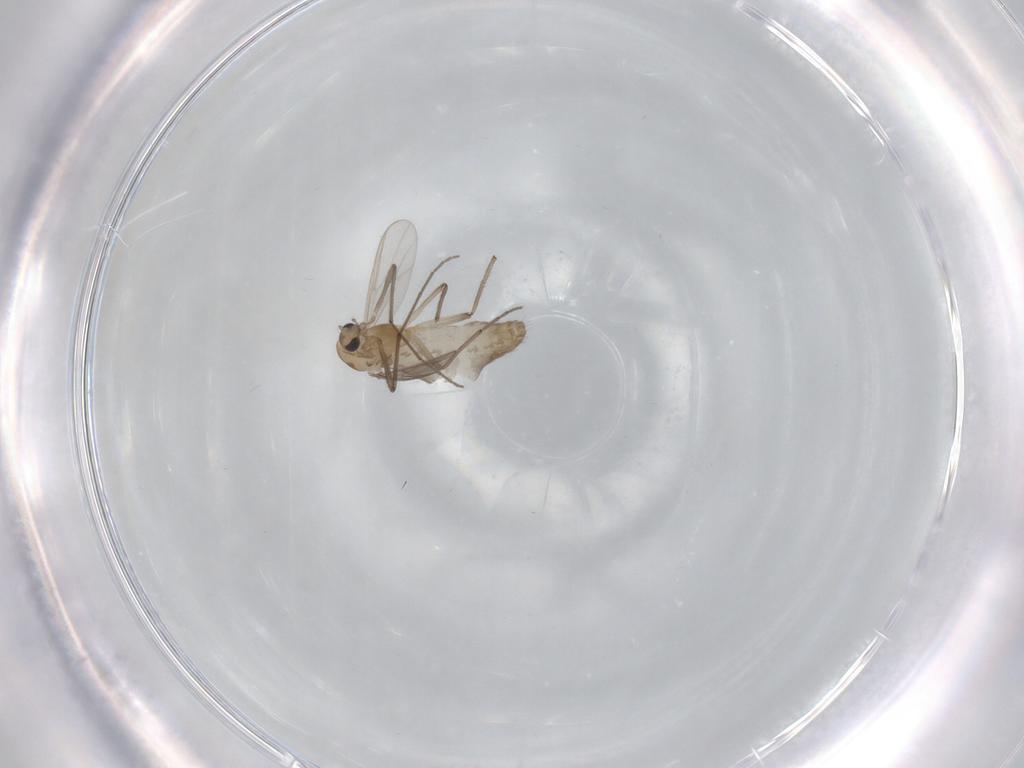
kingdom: Animalia
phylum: Arthropoda
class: Insecta
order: Diptera
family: Chironomidae
